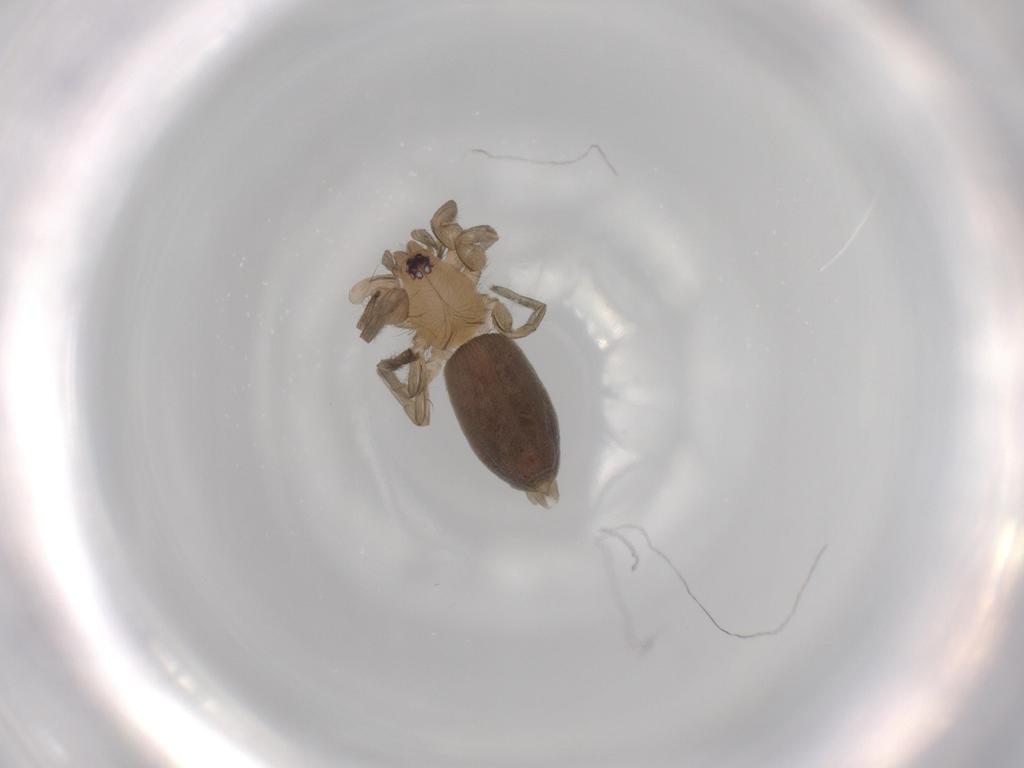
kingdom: Animalia
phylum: Arthropoda
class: Arachnida
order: Araneae
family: Gnaphosidae
